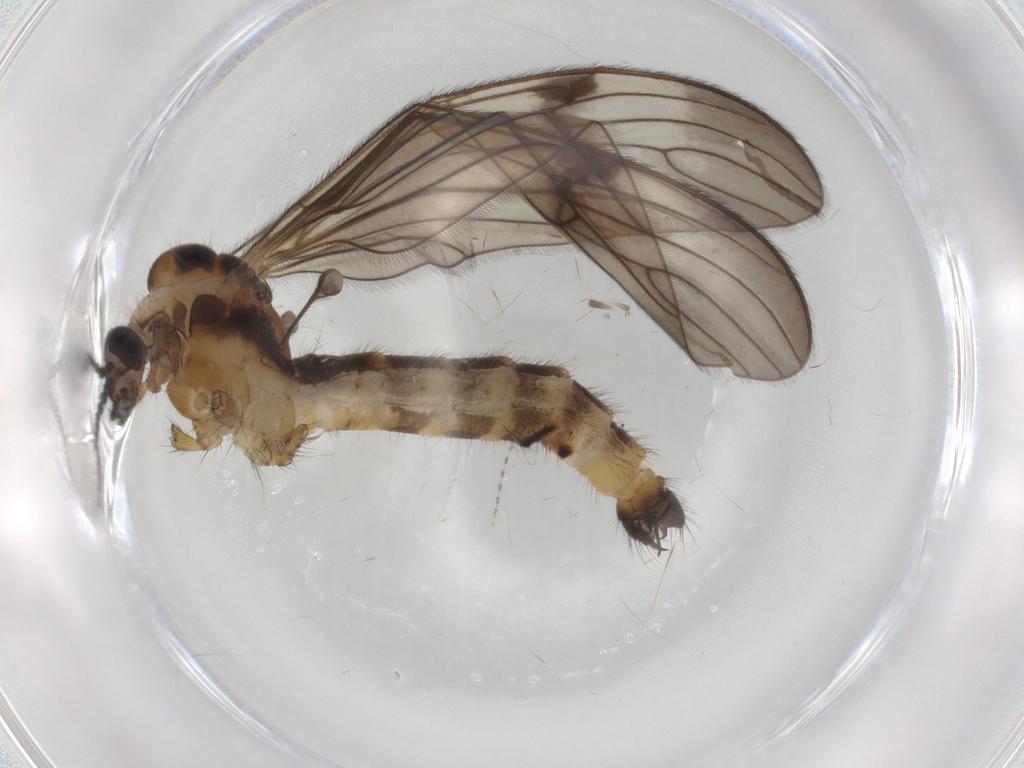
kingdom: Animalia
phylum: Arthropoda
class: Insecta
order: Diptera
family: Limoniidae
